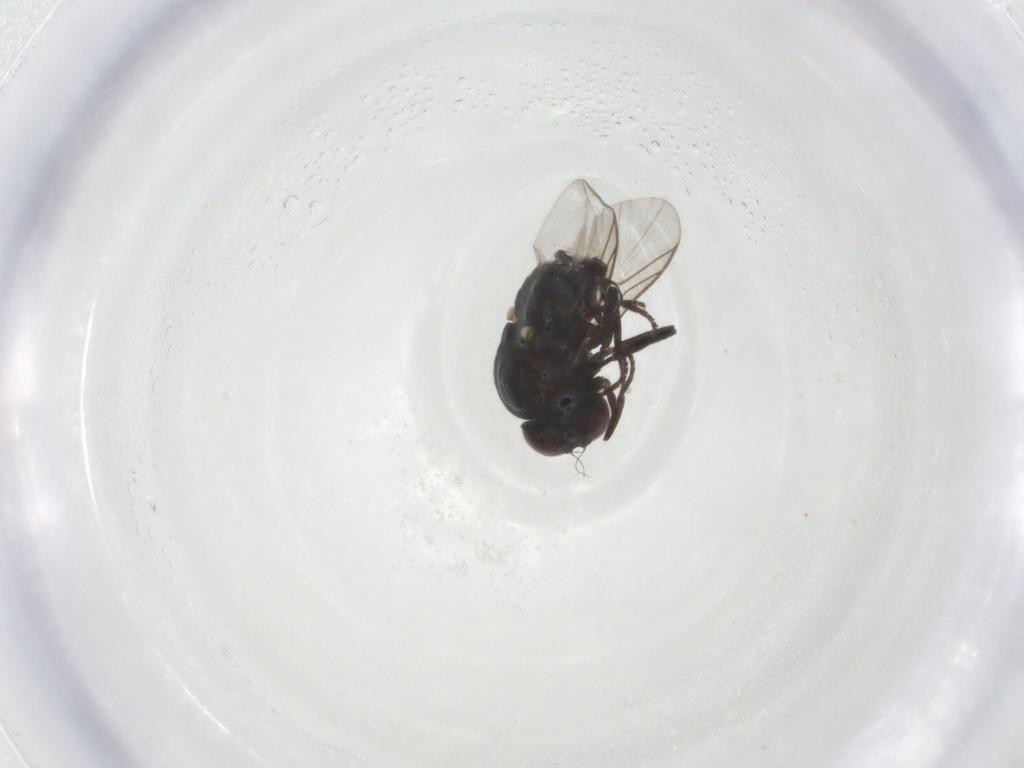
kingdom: Animalia
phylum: Arthropoda
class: Insecta
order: Diptera
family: Agromyzidae
